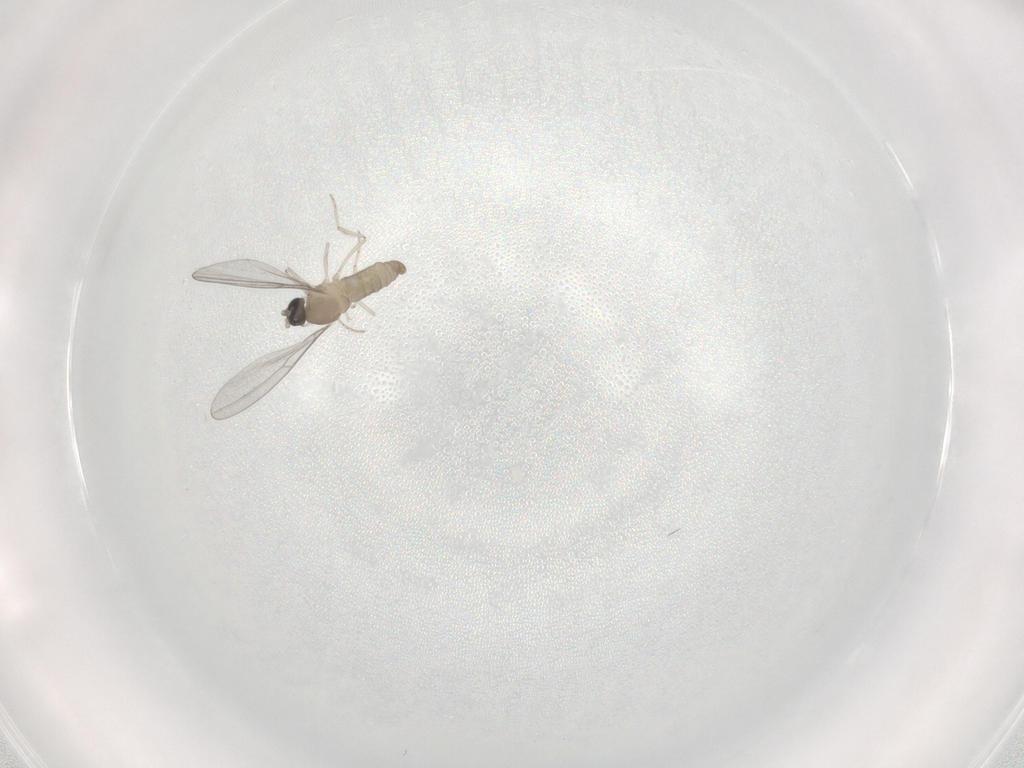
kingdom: Animalia
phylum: Arthropoda
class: Insecta
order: Diptera
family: Cecidomyiidae
